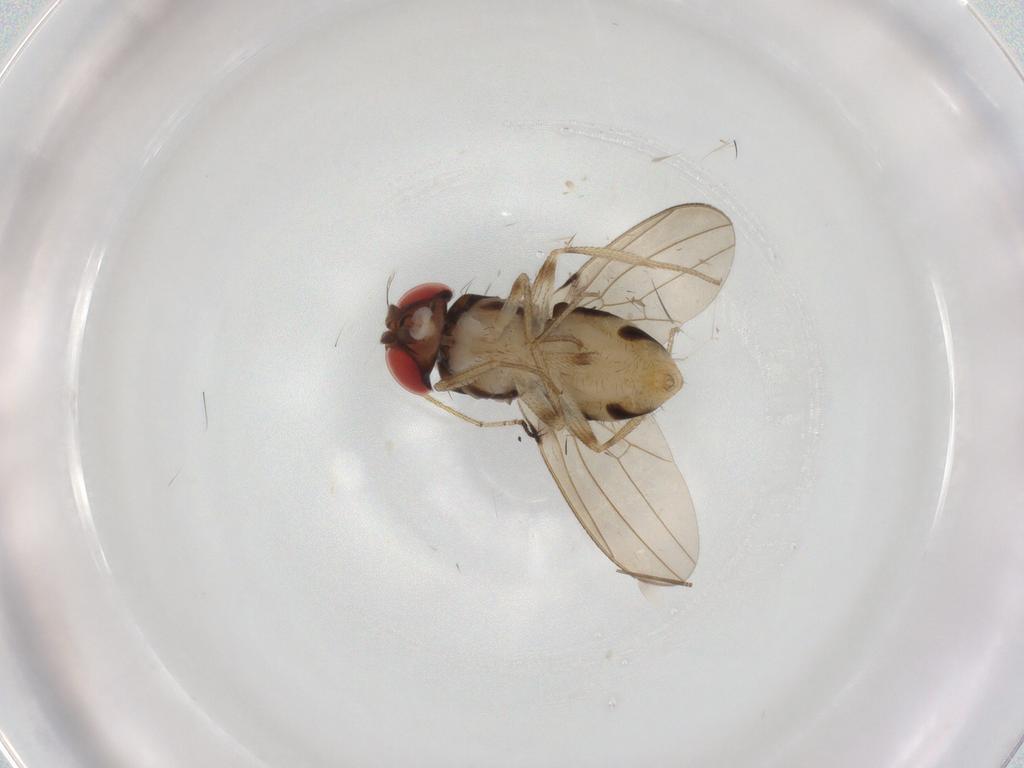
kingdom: Animalia
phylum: Arthropoda
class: Insecta
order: Diptera
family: Drosophilidae
